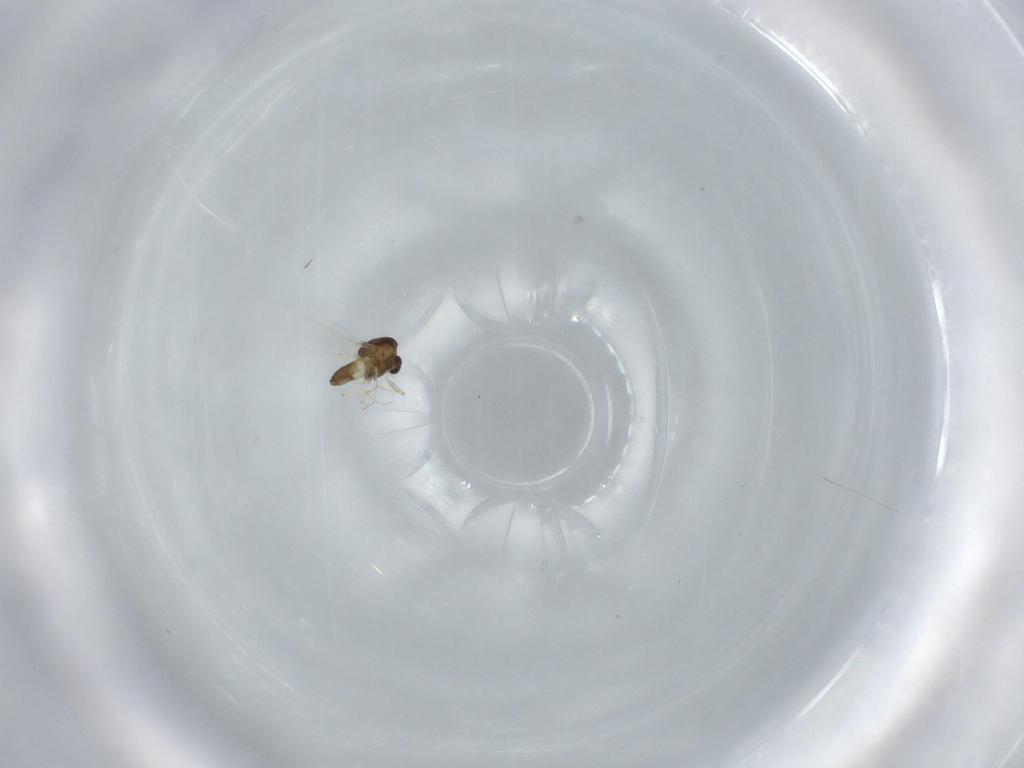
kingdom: Animalia
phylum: Arthropoda
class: Insecta
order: Diptera
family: Chironomidae
